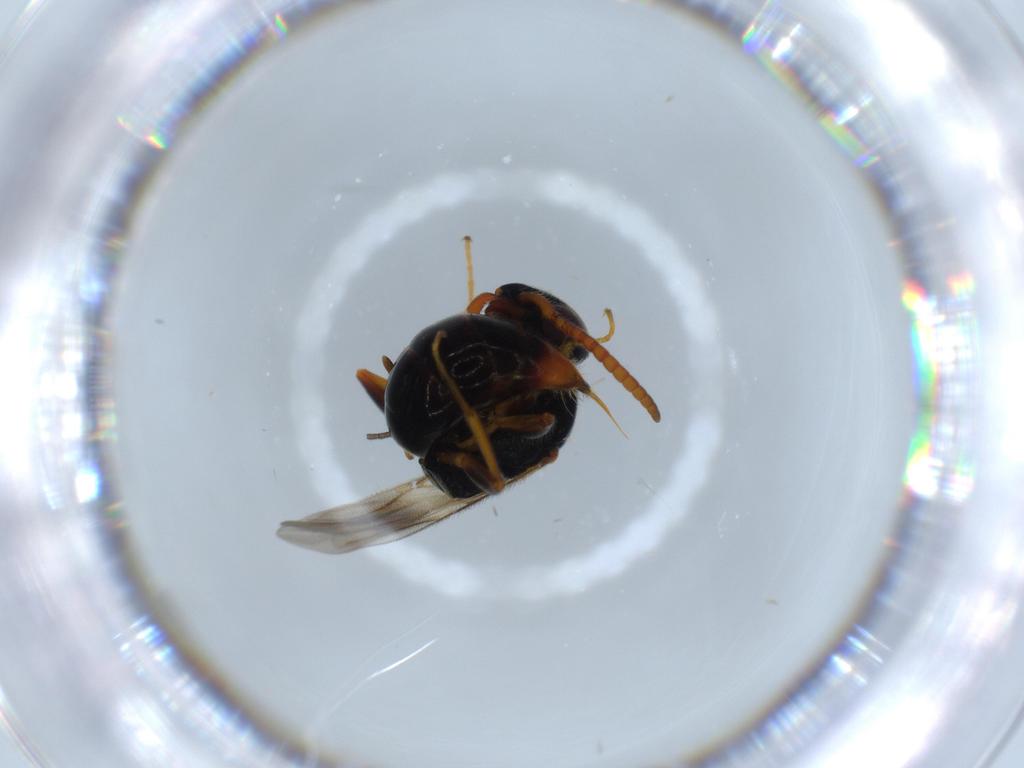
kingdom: Animalia
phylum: Arthropoda
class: Insecta
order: Hymenoptera
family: Bethylidae
